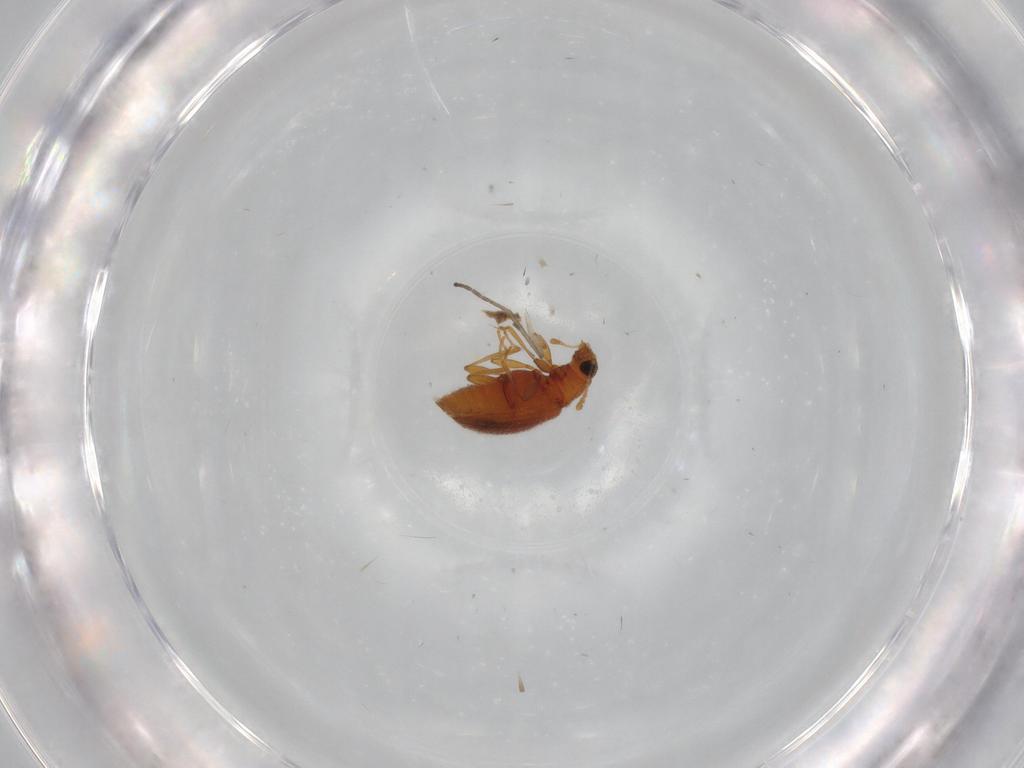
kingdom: Animalia
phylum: Arthropoda
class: Insecta
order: Coleoptera
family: Latridiidae
